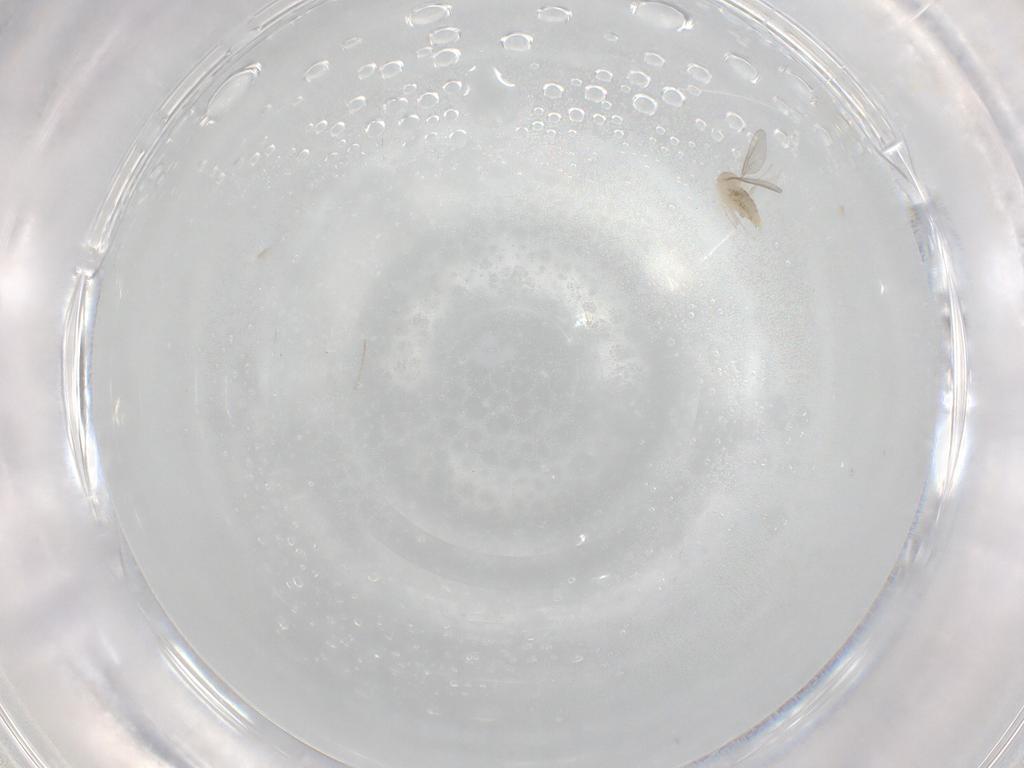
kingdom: Animalia
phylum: Arthropoda
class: Insecta
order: Diptera
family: Cecidomyiidae
